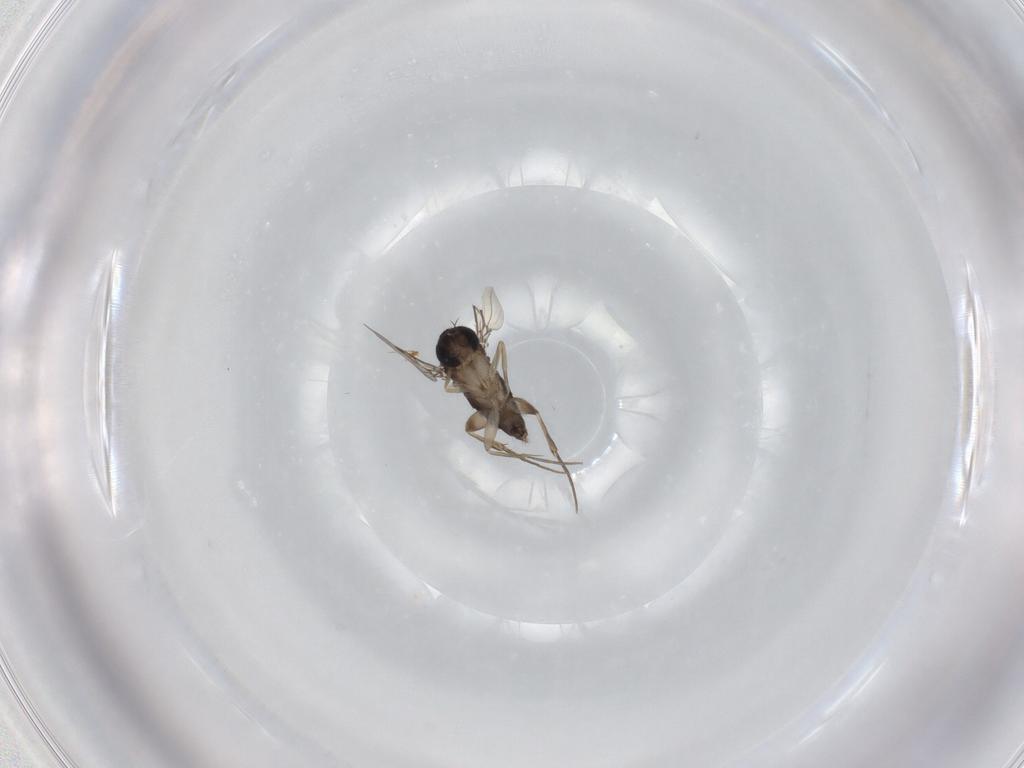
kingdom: Animalia
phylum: Arthropoda
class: Insecta
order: Diptera
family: Phoridae
